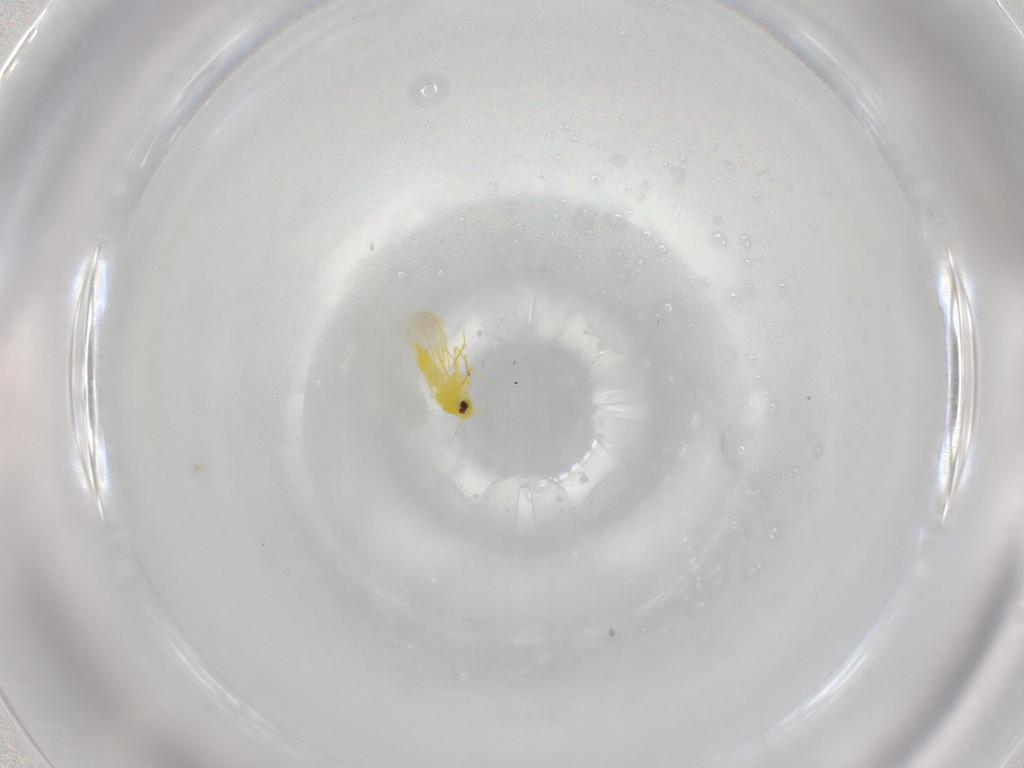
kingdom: Animalia
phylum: Arthropoda
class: Insecta
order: Hemiptera
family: Aleyrodidae
